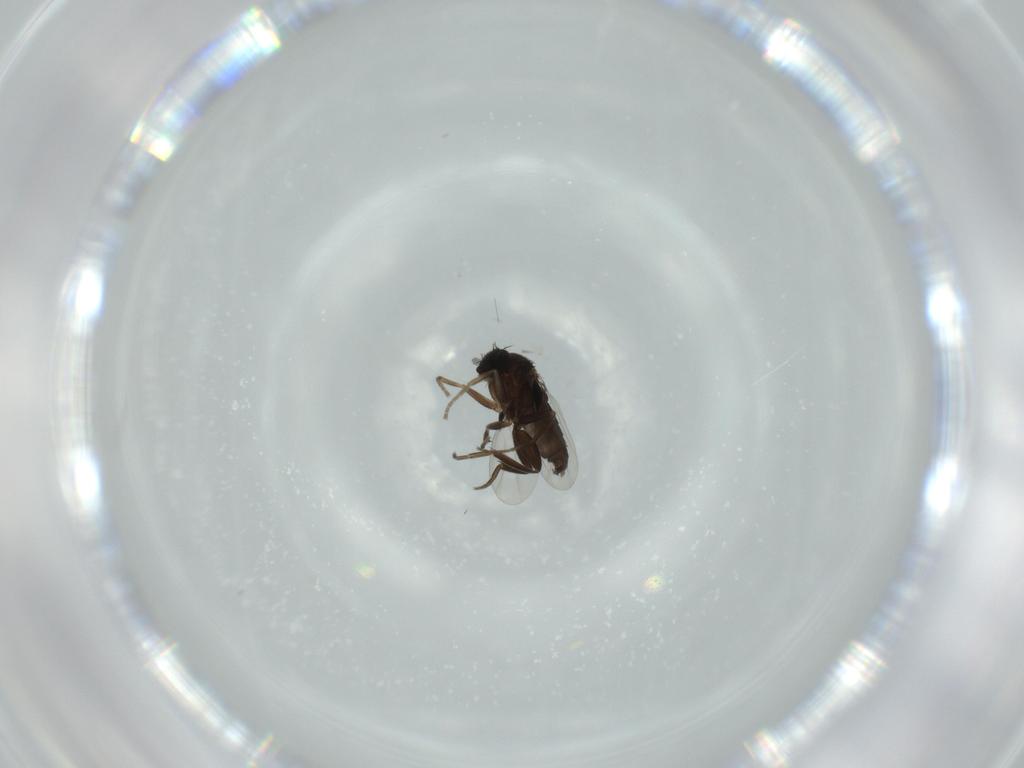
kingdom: Animalia
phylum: Arthropoda
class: Insecta
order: Diptera
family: Phoridae
